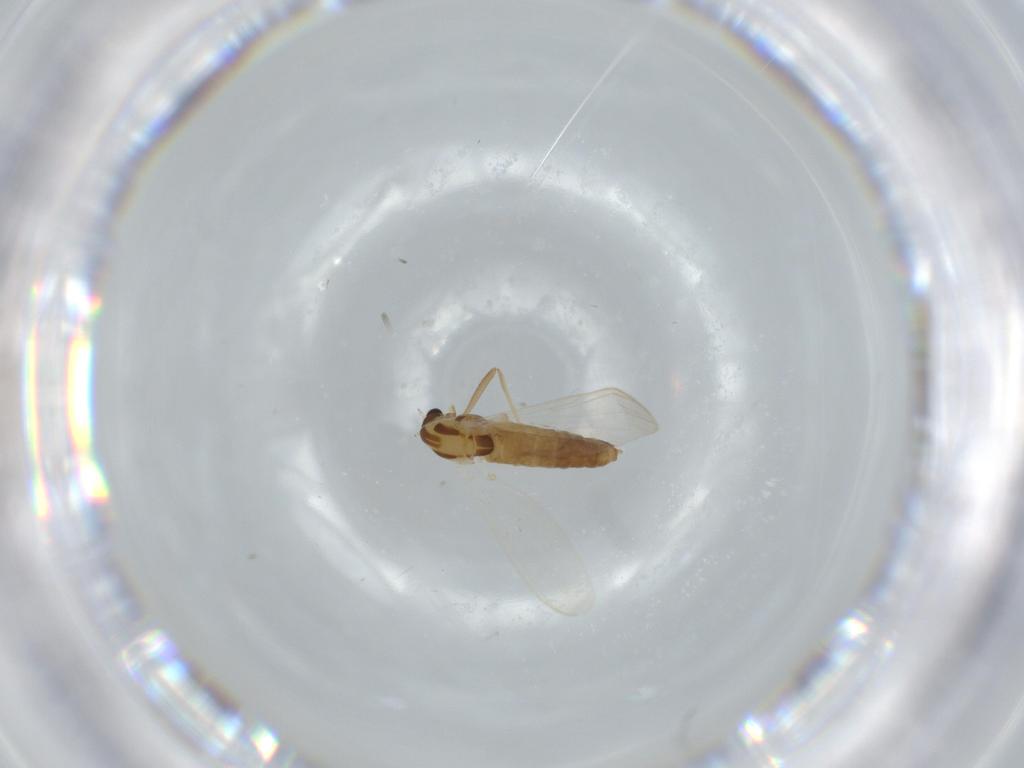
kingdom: Animalia
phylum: Arthropoda
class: Insecta
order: Diptera
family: Chironomidae
